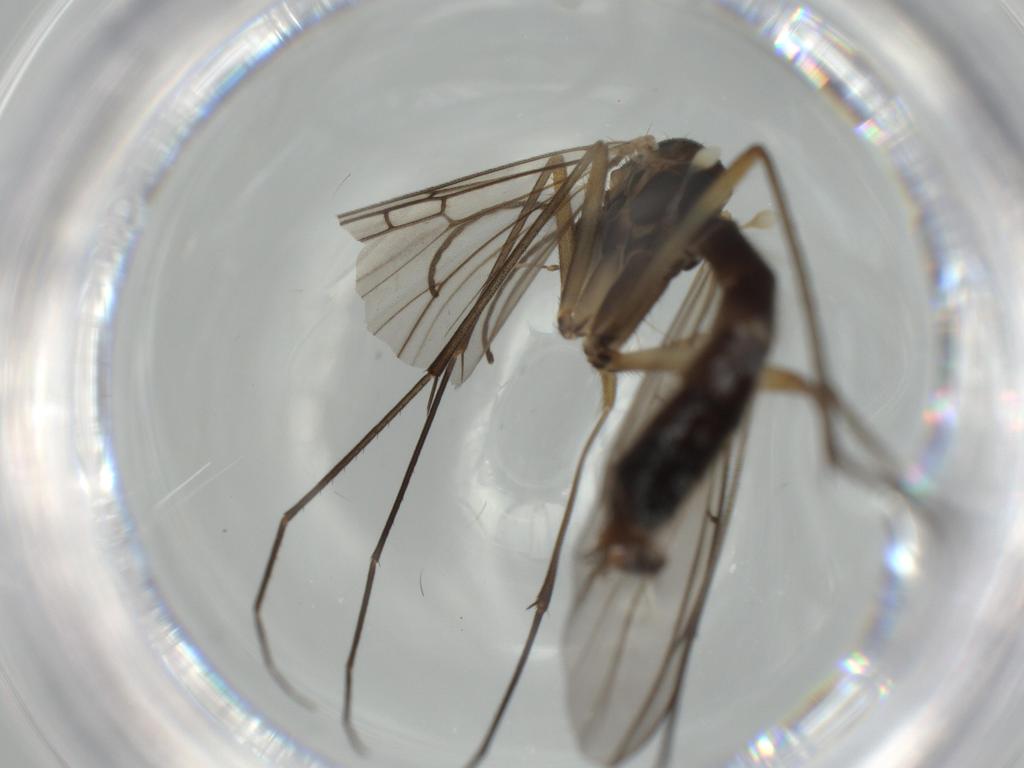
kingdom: Animalia
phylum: Arthropoda
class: Insecta
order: Diptera
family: Mycetophilidae
